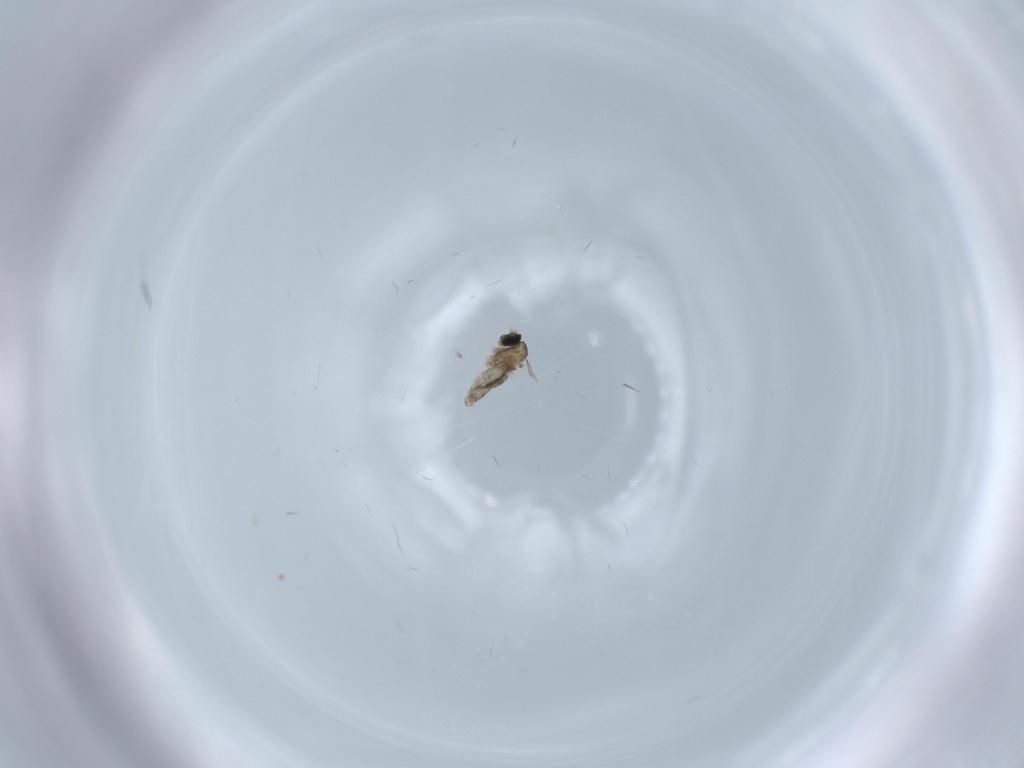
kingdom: Animalia
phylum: Arthropoda
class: Insecta
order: Diptera
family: Cecidomyiidae
